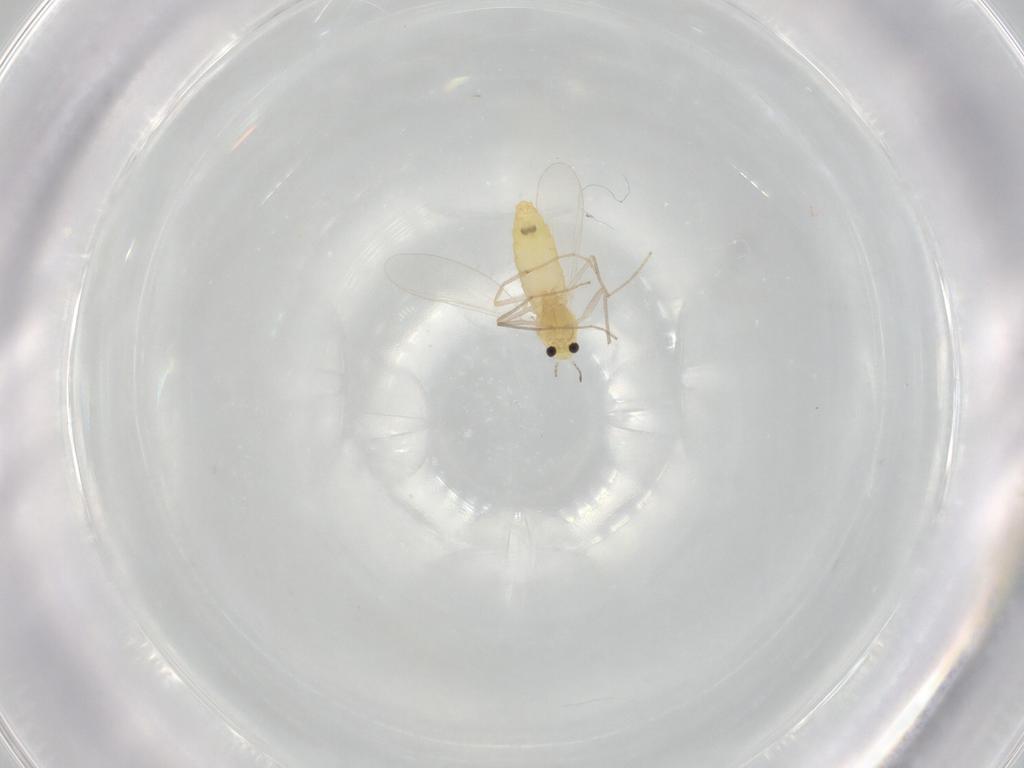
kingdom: Animalia
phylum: Arthropoda
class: Insecta
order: Diptera
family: Chironomidae
